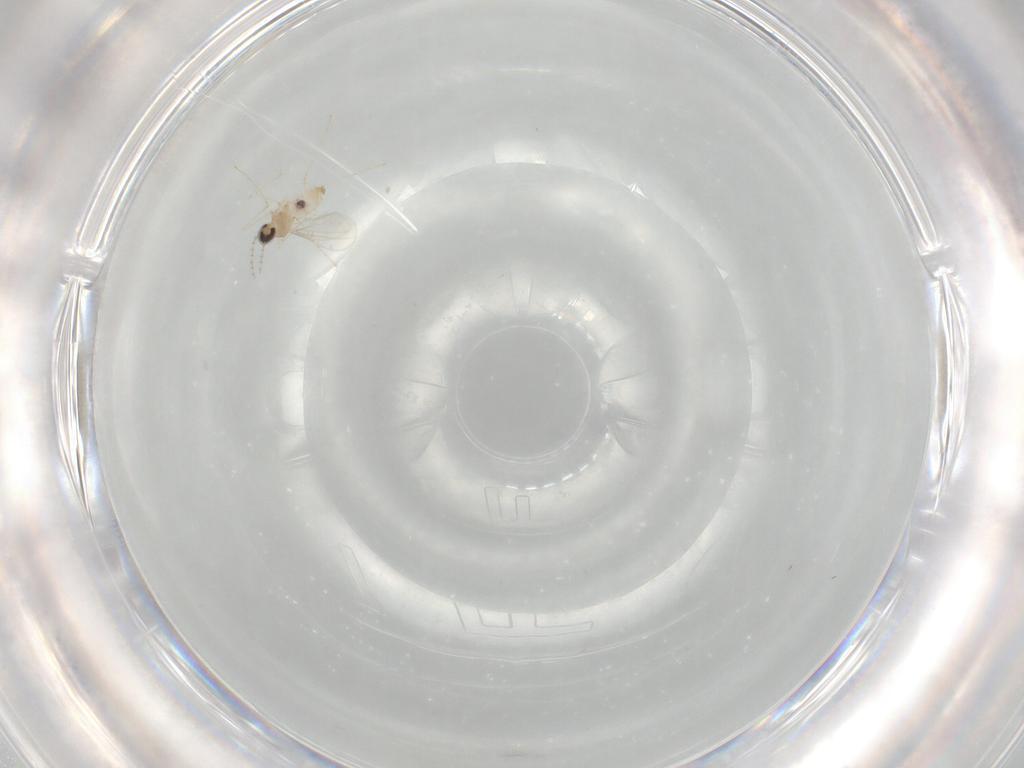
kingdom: Animalia
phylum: Arthropoda
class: Insecta
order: Diptera
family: Cecidomyiidae
